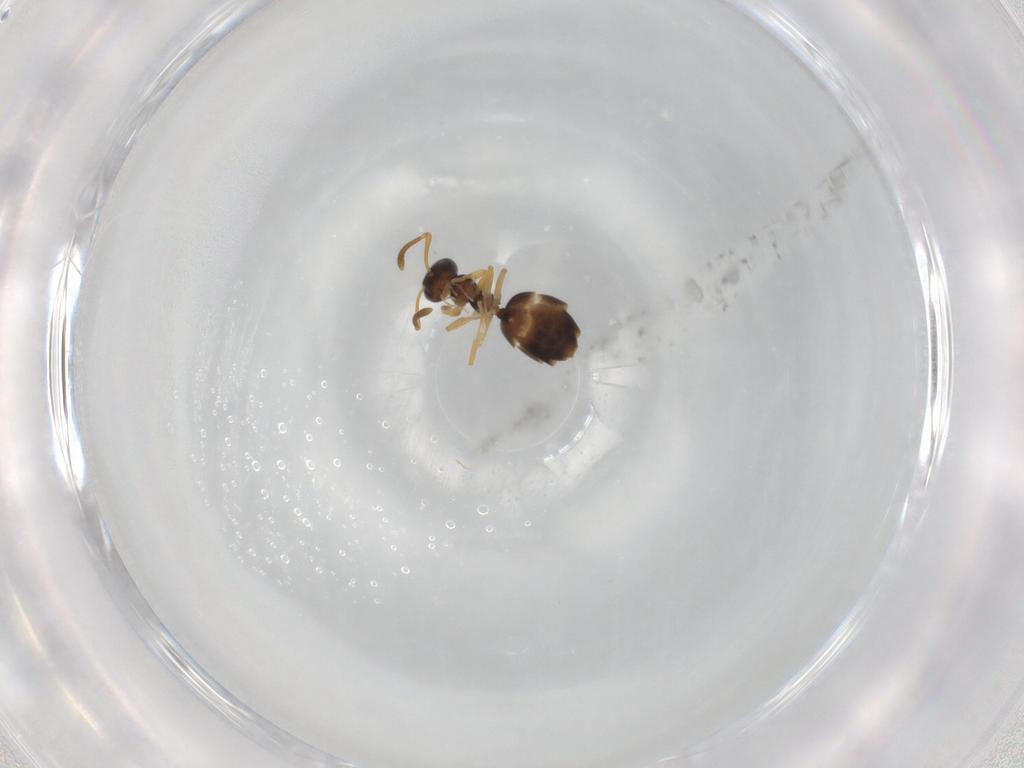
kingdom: Animalia
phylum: Arthropoda
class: Insecta
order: Hymenoptera
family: Formicidae
